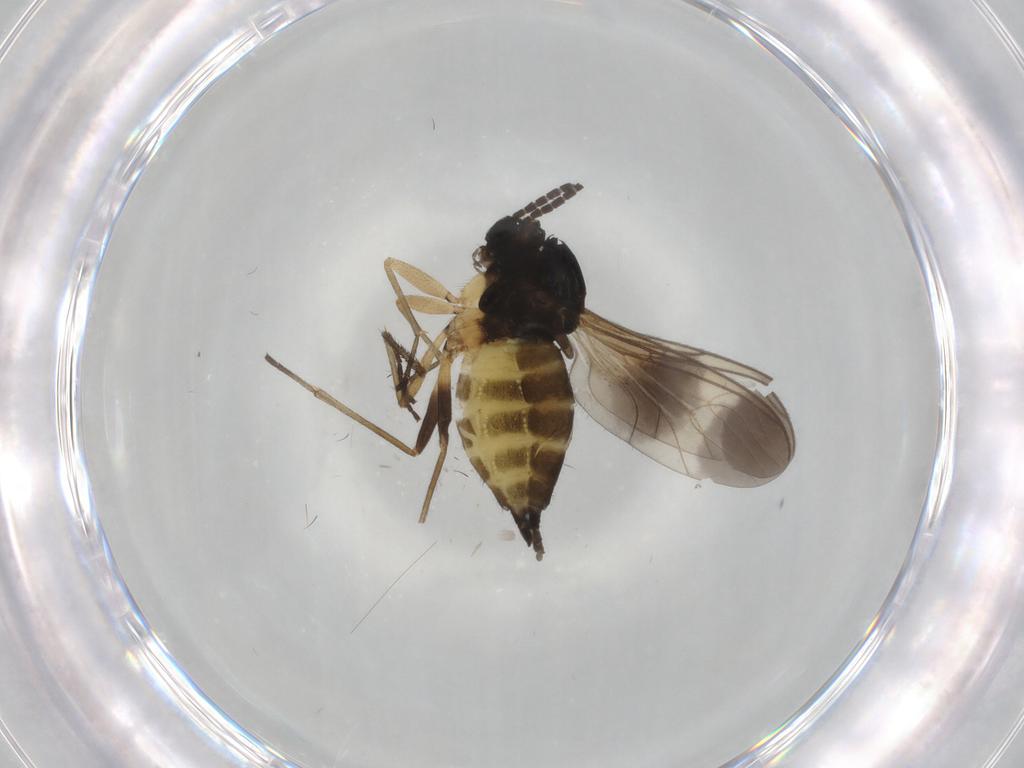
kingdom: Animalia
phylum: Arthropoda
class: Insecta
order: Diptera
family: Sciaridae
